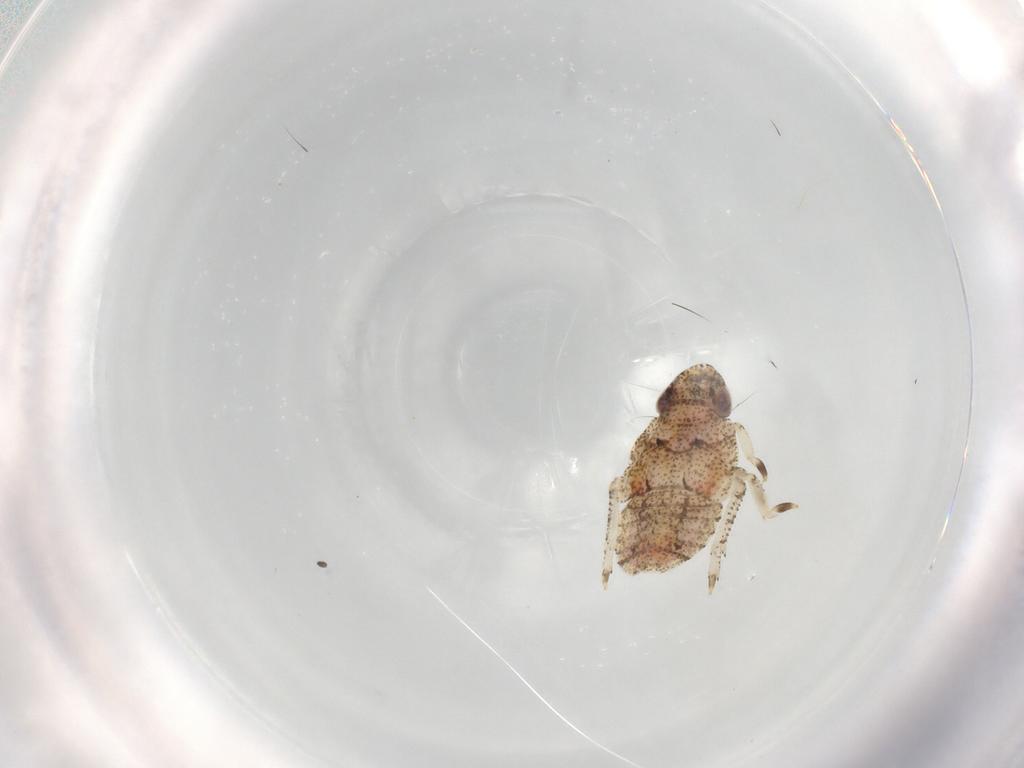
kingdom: Animalia
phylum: Arthropoda
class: Insecta
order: Hemiptera
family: Gengidae
